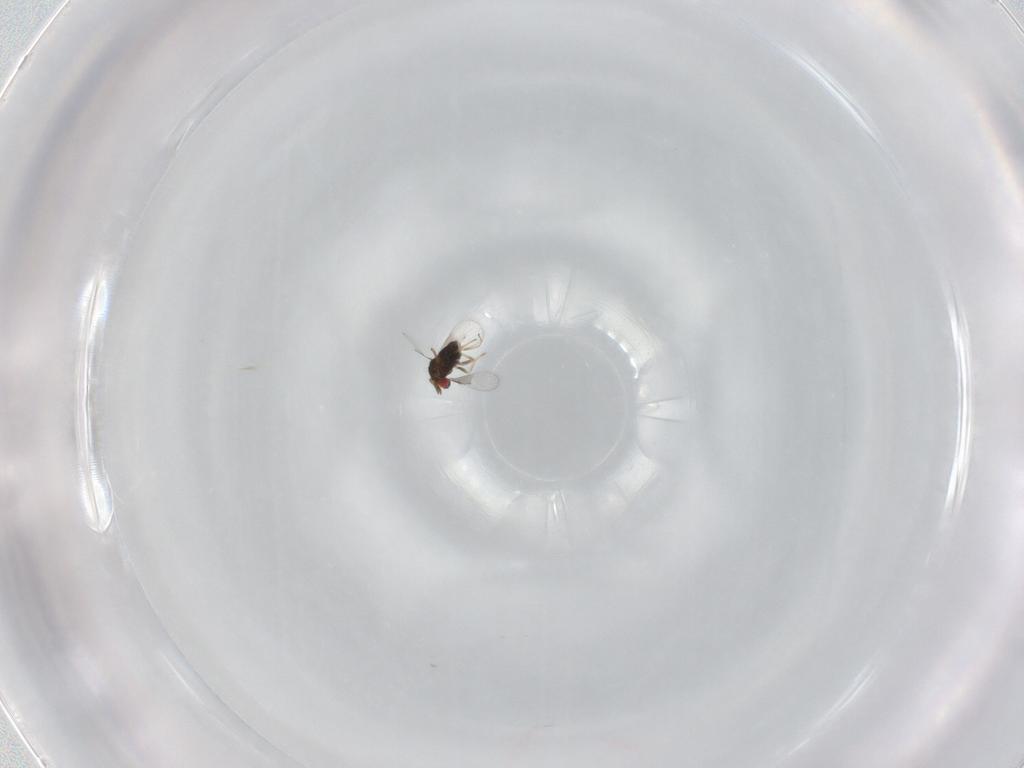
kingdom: Animalia
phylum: Arthropoda
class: Insecta
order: Hymenoptera
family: Trichogrammatidae
